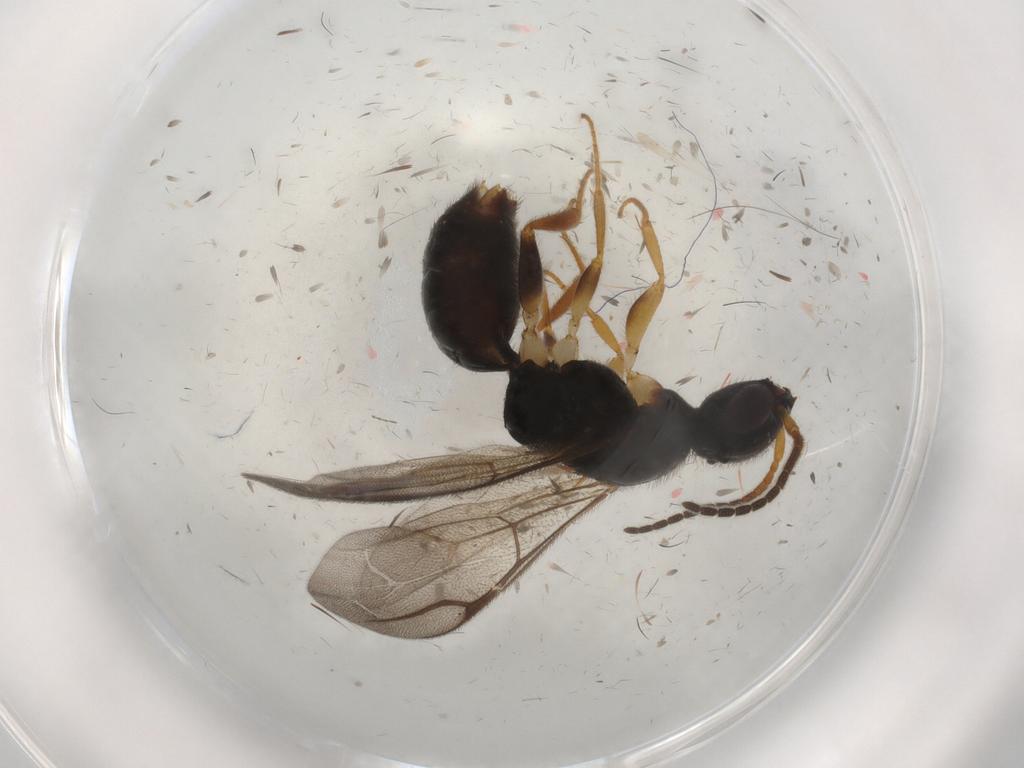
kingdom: Animalia
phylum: Arthropoda
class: Insecta
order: Hymenoptera
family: Bethylidae
